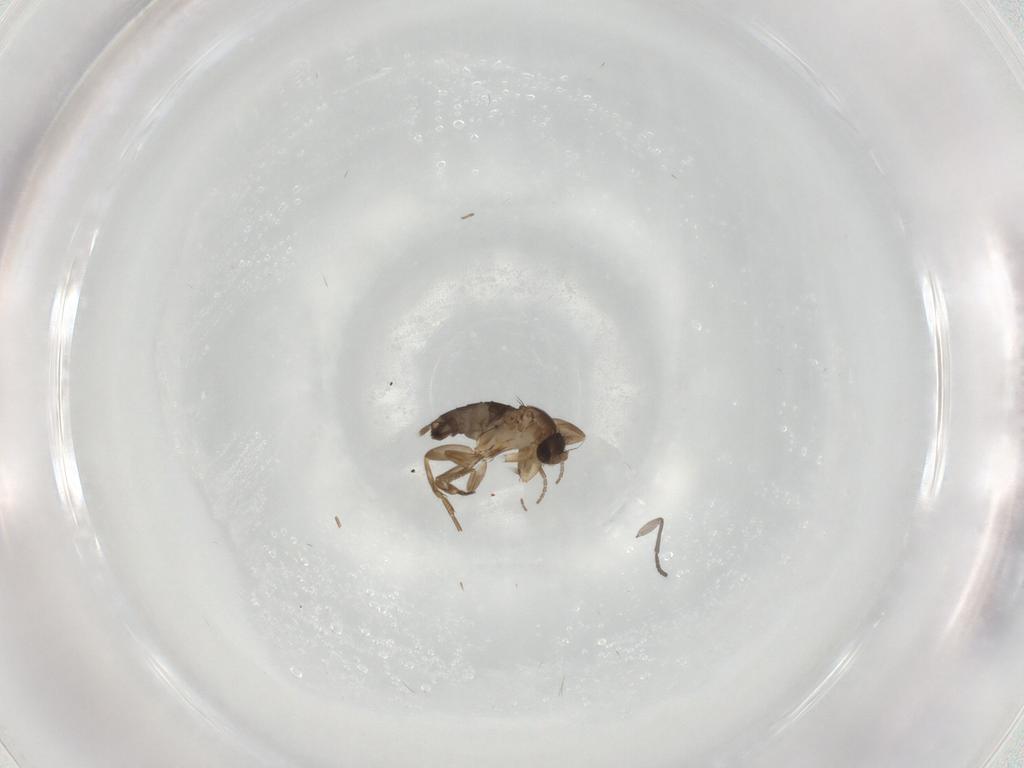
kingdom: Animalia
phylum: Arthropoda
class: Insecta
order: Diptera
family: Phoridae
